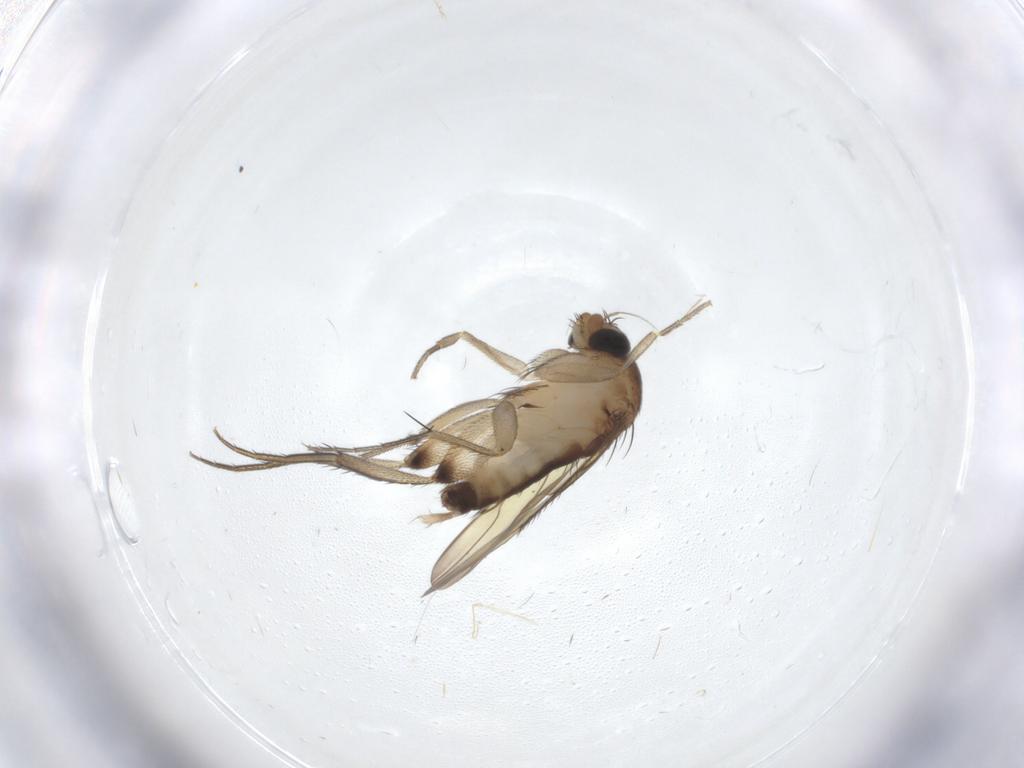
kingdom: Animalia
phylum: Arthropoda
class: Insecta
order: Diptera
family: Phoridae
